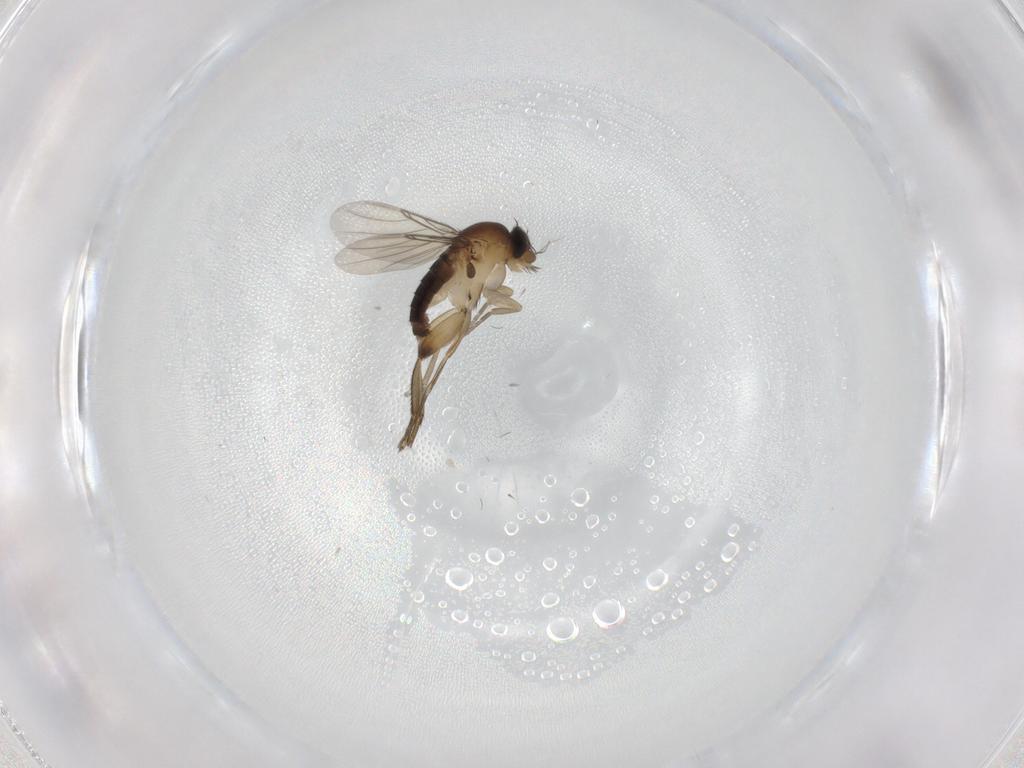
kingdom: Animalia
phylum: Arthropoda
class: Insecta
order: Diptera
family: Phoridae
